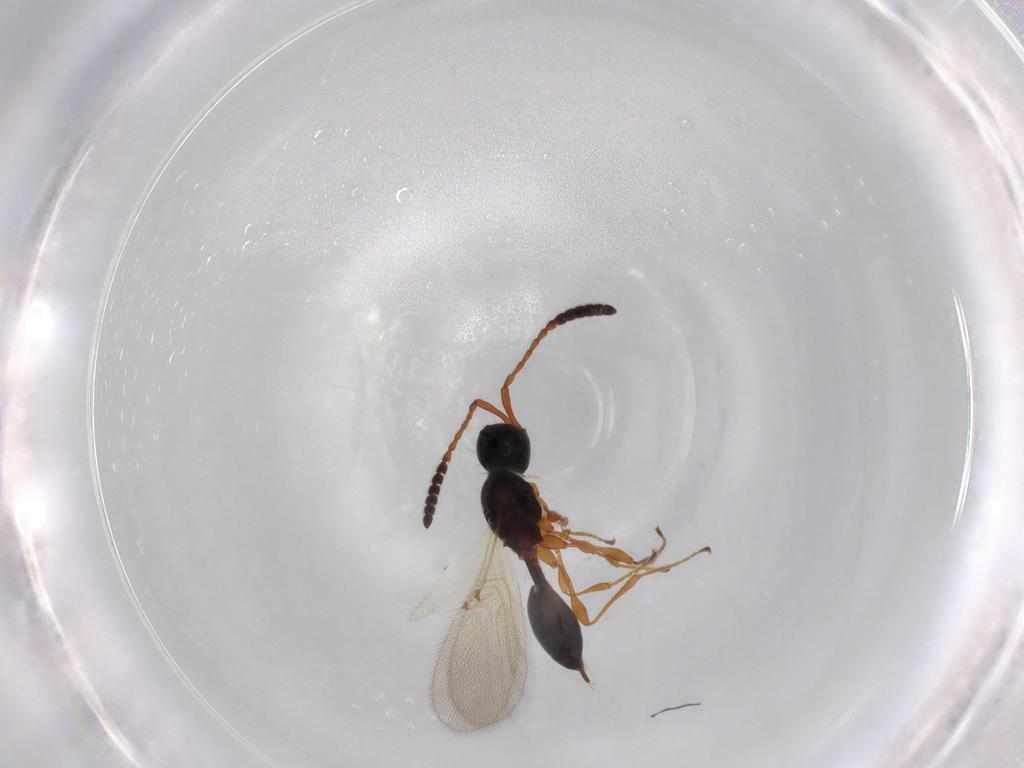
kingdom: Animalia
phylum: Arthropoda
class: Insecta
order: Hymenoptera
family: Diapriidae
